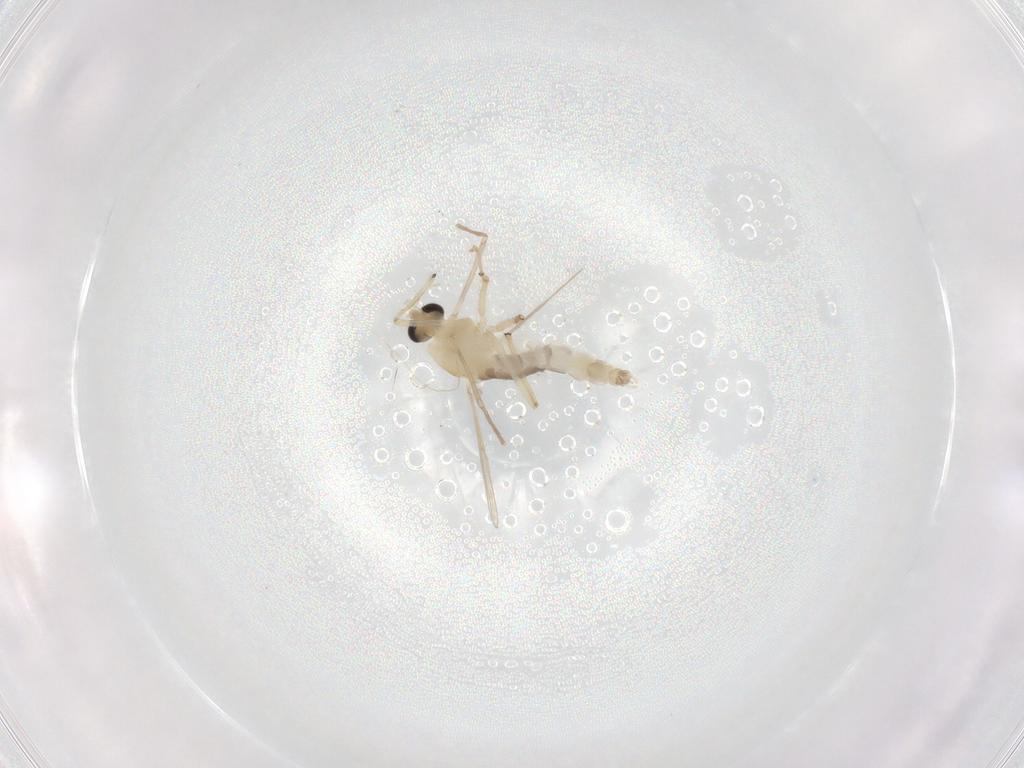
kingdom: Animalia
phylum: Arthropoda
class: Insecta
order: Diptera
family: Chironomidae
